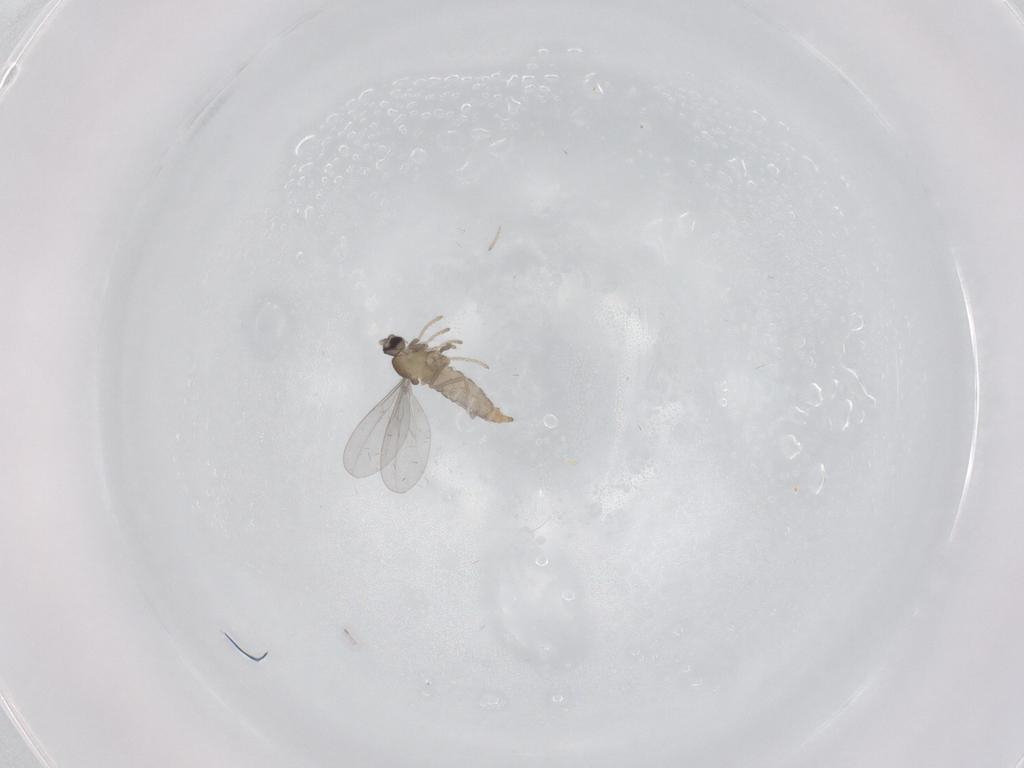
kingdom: Animalia
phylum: Arthropoda
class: Insecta
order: Diptera
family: Cecidomyiidae
